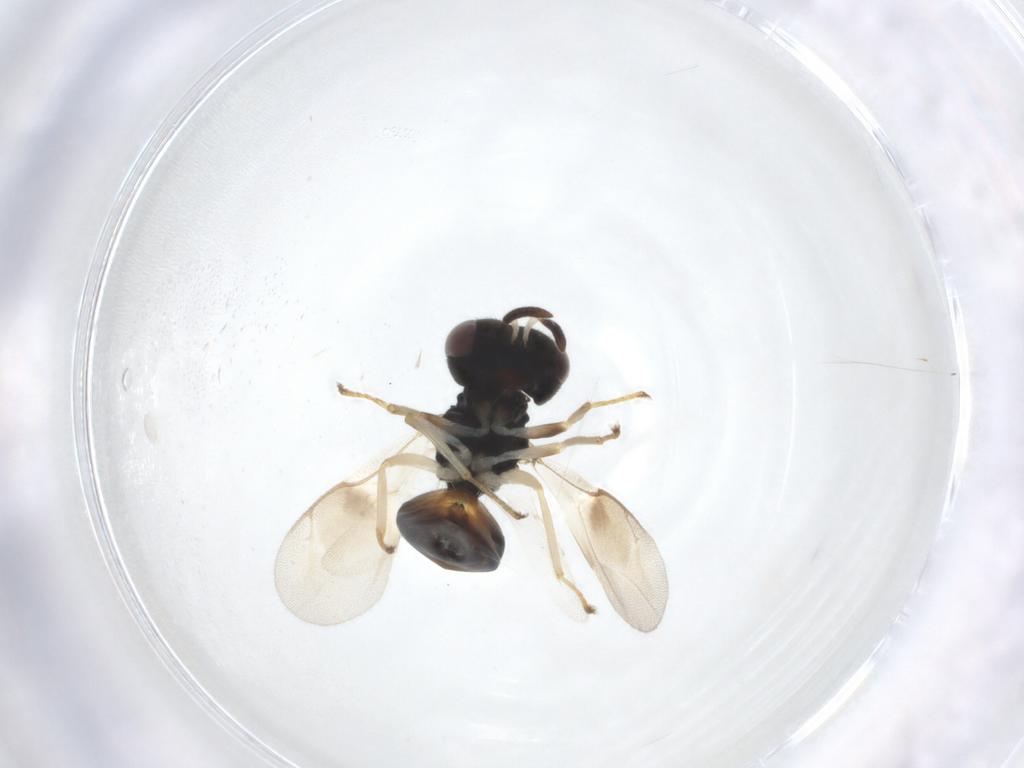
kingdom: Animalia
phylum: Arthropoda
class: Insecta
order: Hymenoptera
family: Pteromalidae
